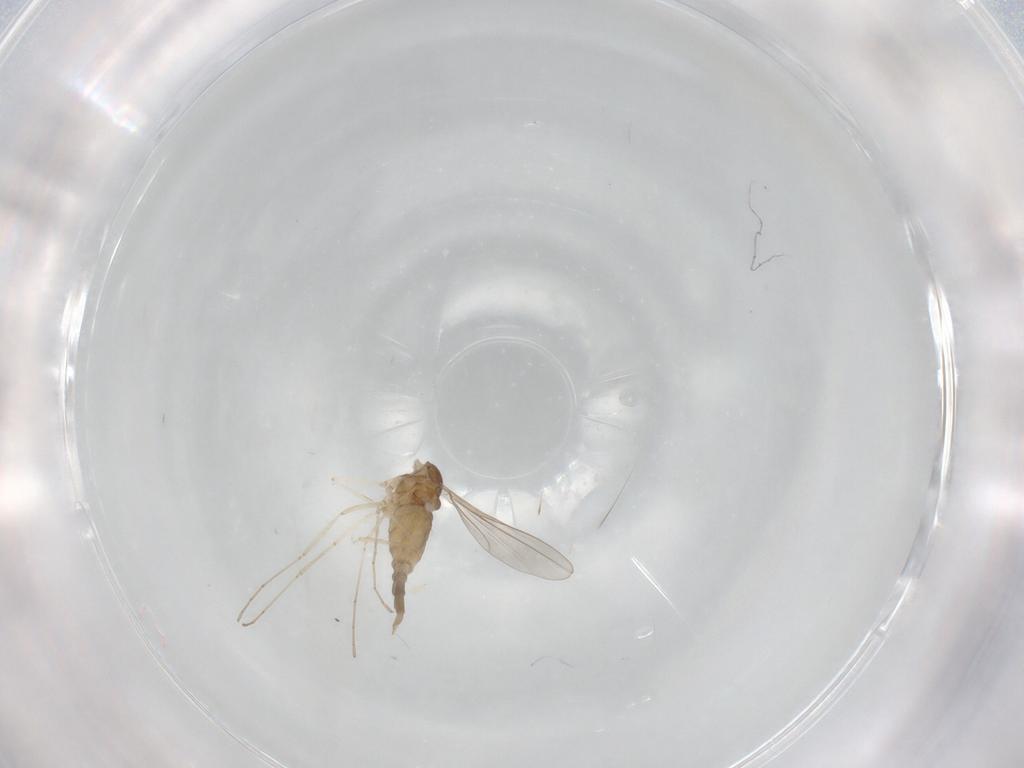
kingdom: Animalia
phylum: Arthropoda
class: Insecta
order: Diptera
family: Cecidomyiidae
